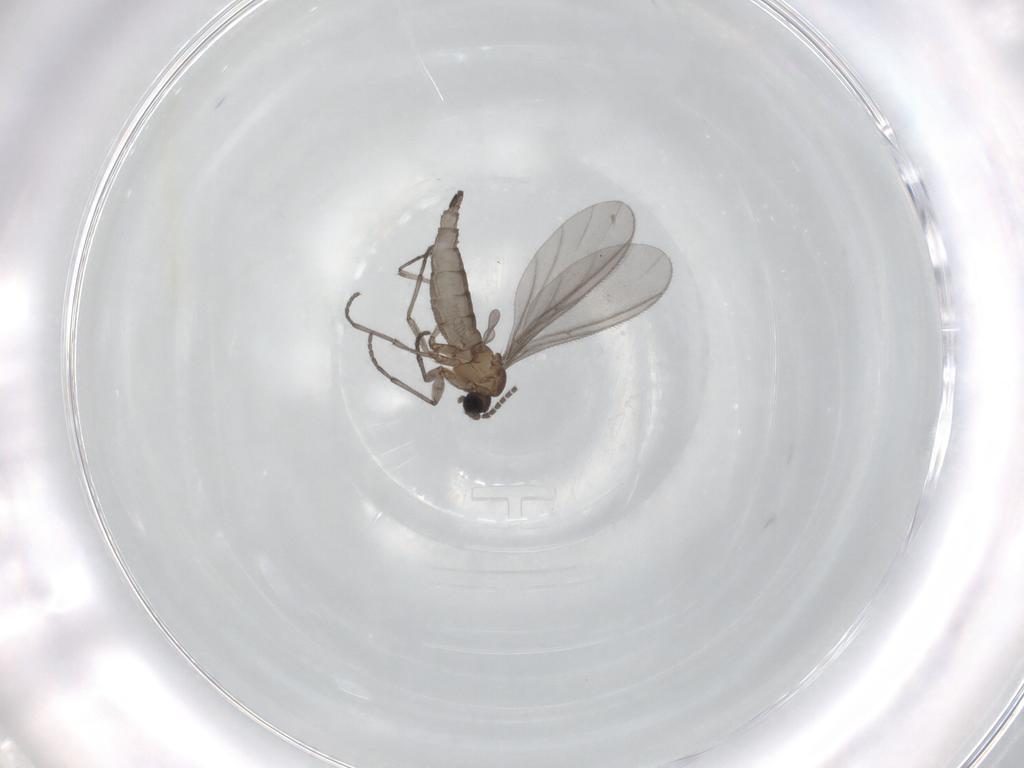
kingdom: Animalia
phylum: Arthropoda
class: Insecta
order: Diptera
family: Sciaridae
